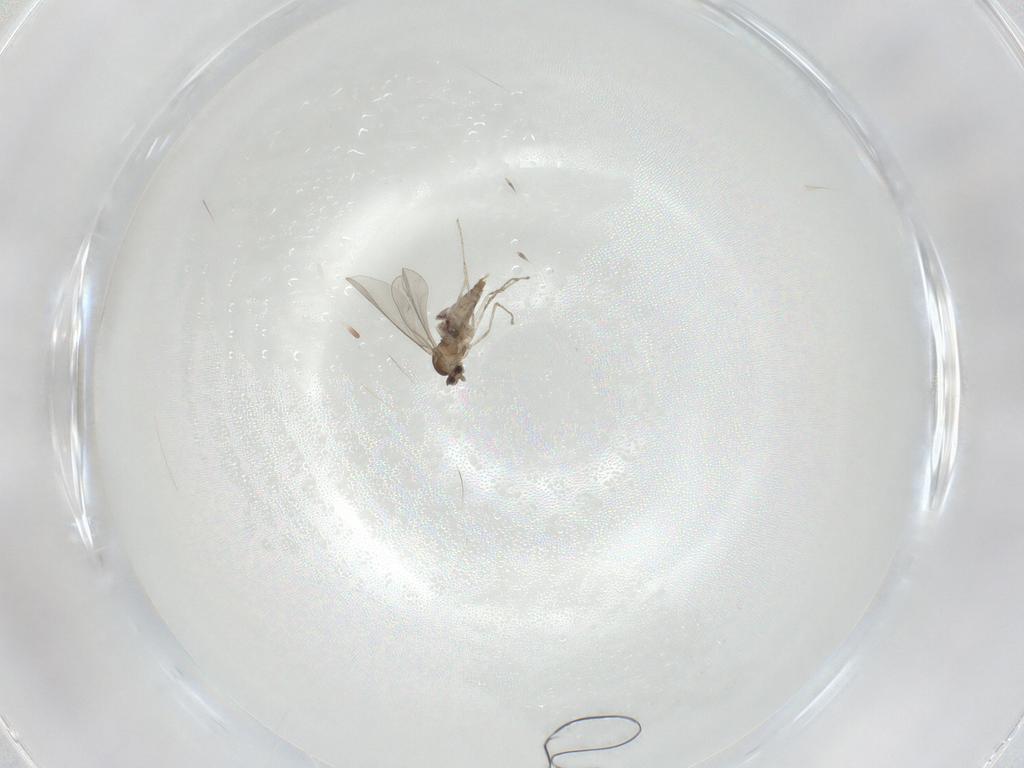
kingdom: Animalia
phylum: Arthropoda
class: Insecta
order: Diptera
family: Cecidomyiidae
